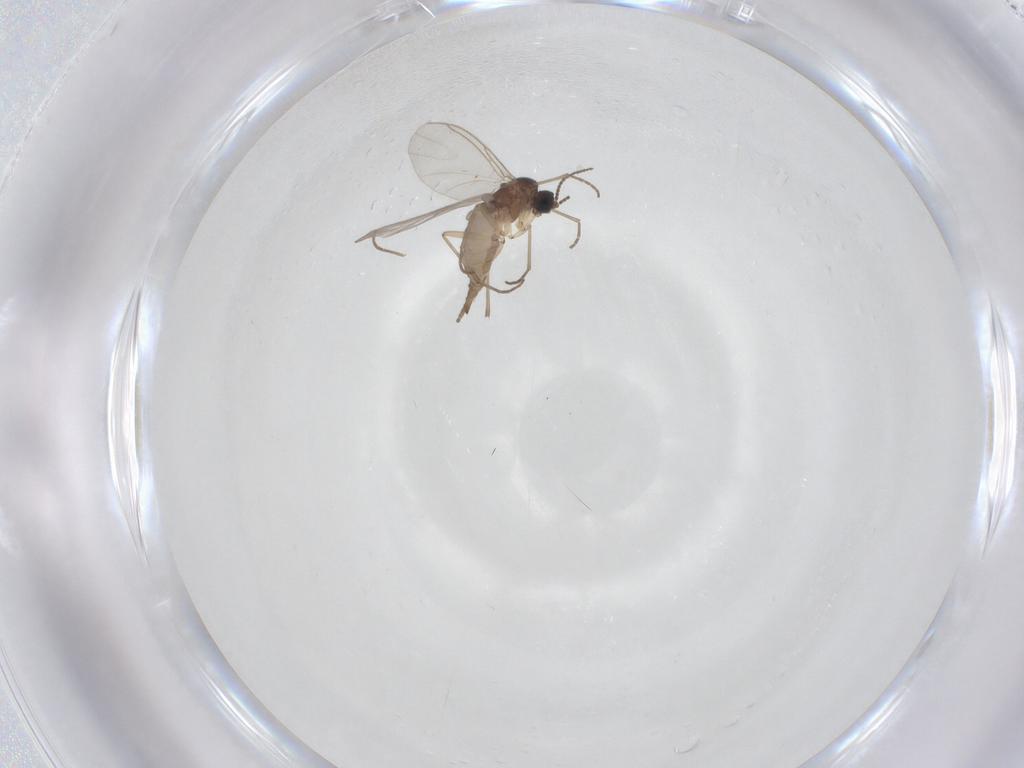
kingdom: Animalia
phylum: Arthropoda
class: Insecta
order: Diptera
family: Sciaridae
